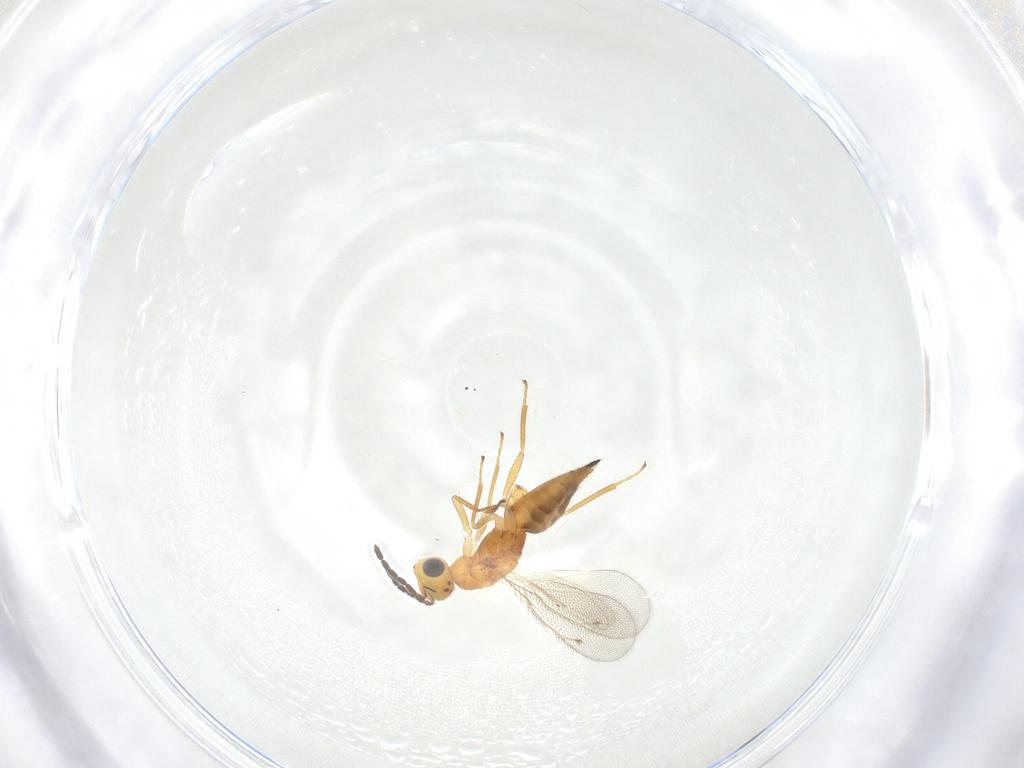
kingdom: Animalia
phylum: Arthropoda
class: Insecta
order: Hymenoptera
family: Eulophidae
